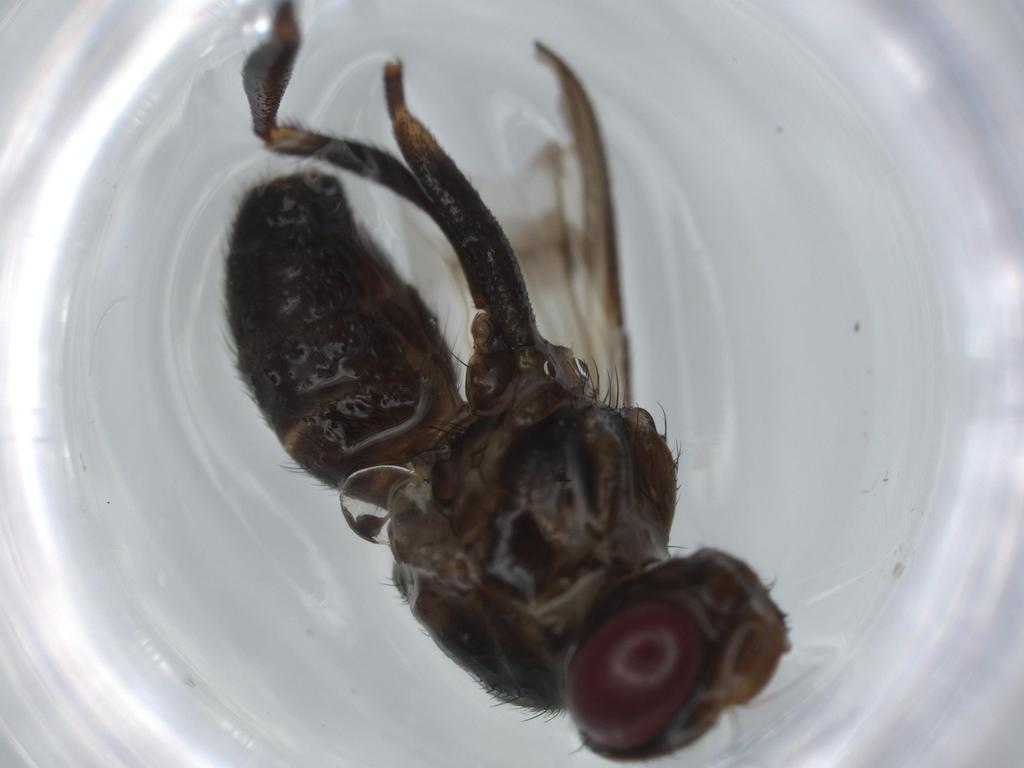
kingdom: Animalia
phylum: Arthropoda
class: Insecta
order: Diptera
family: Calliphoridae
